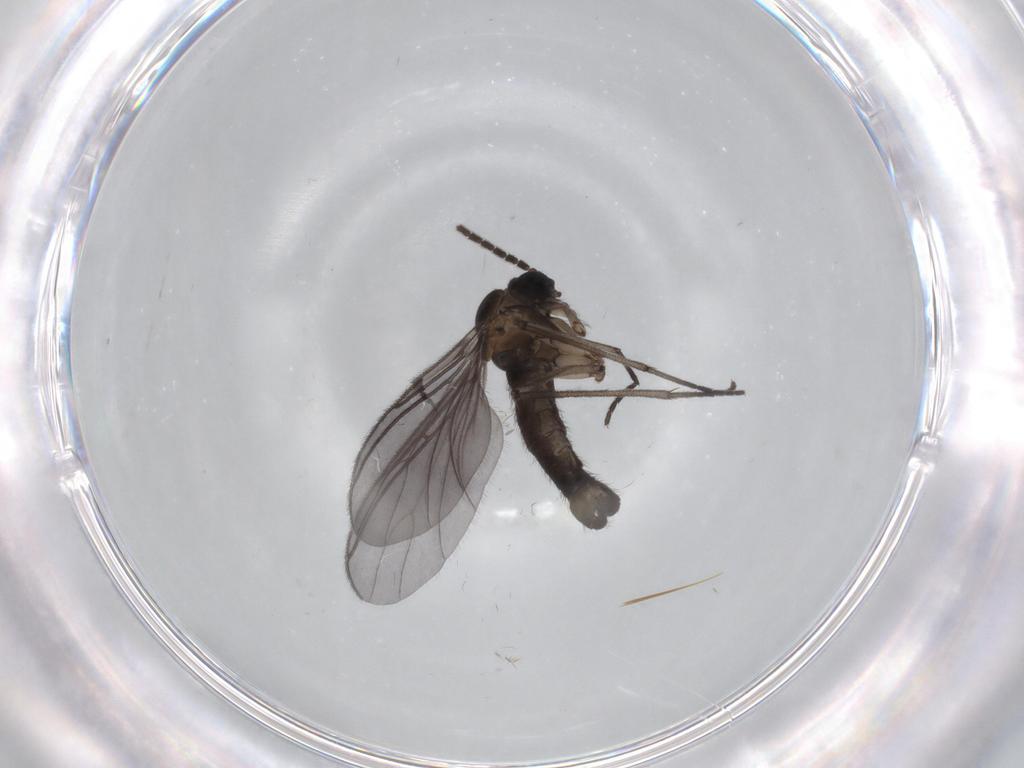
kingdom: Animalia
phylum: Arthropoda
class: Insecta
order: Diptera
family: Sciaridae
